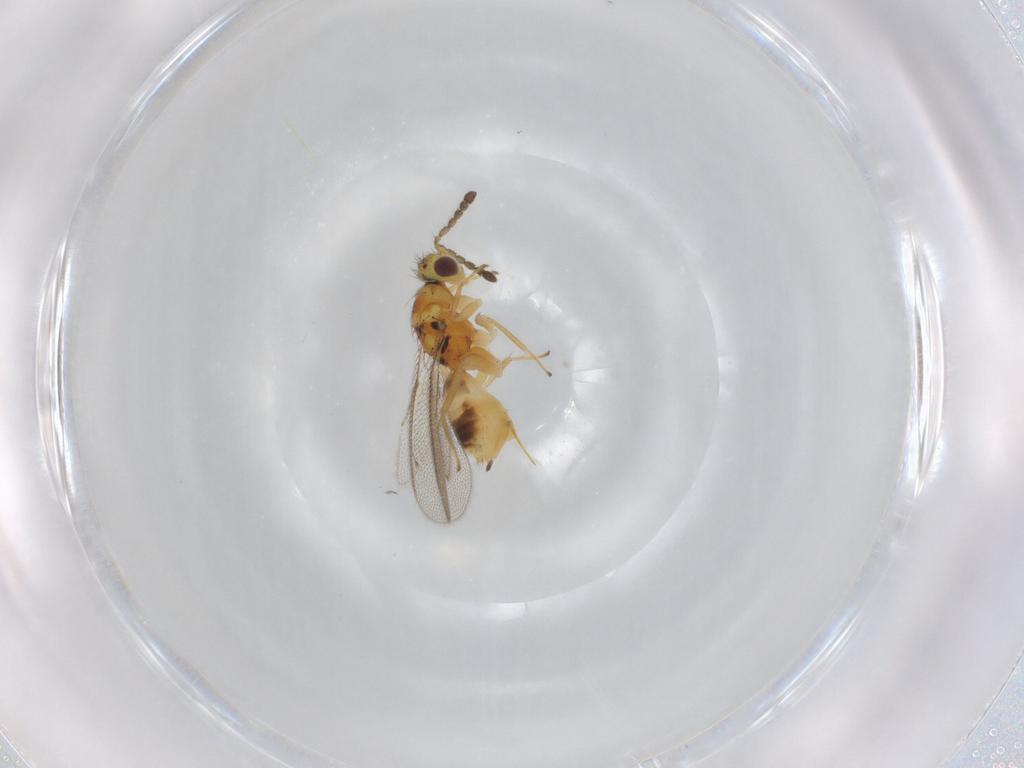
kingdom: Animalia
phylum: Arthropoda
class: Insecta
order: Hymenoptera
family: Eulophidae
